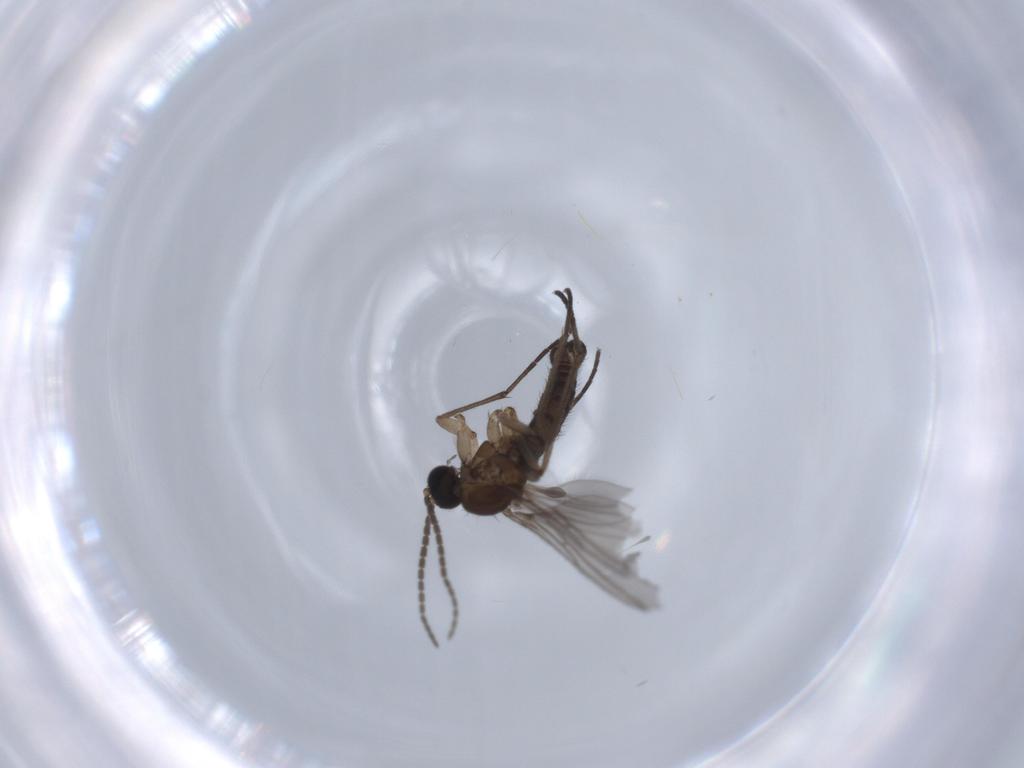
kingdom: Animalia
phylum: Arthropoda
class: Insecta
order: Diptera
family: Sciaridae
